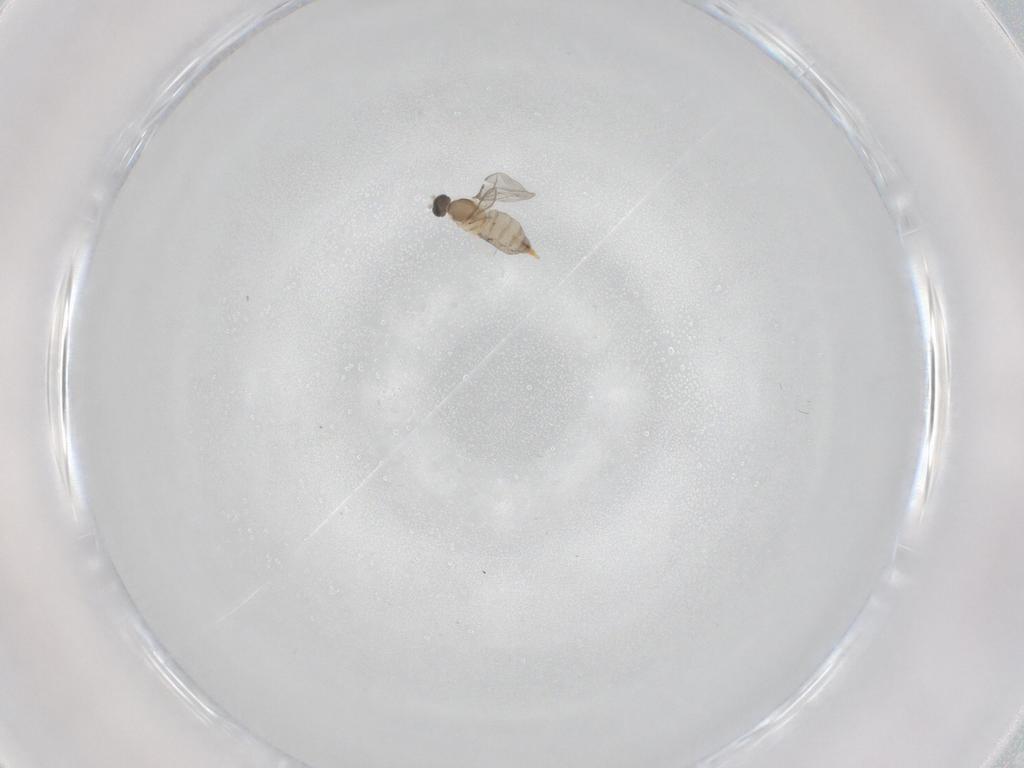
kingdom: Animalia
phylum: Arthropoda
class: Insecta
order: Diptera
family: Cecidomyiidae
